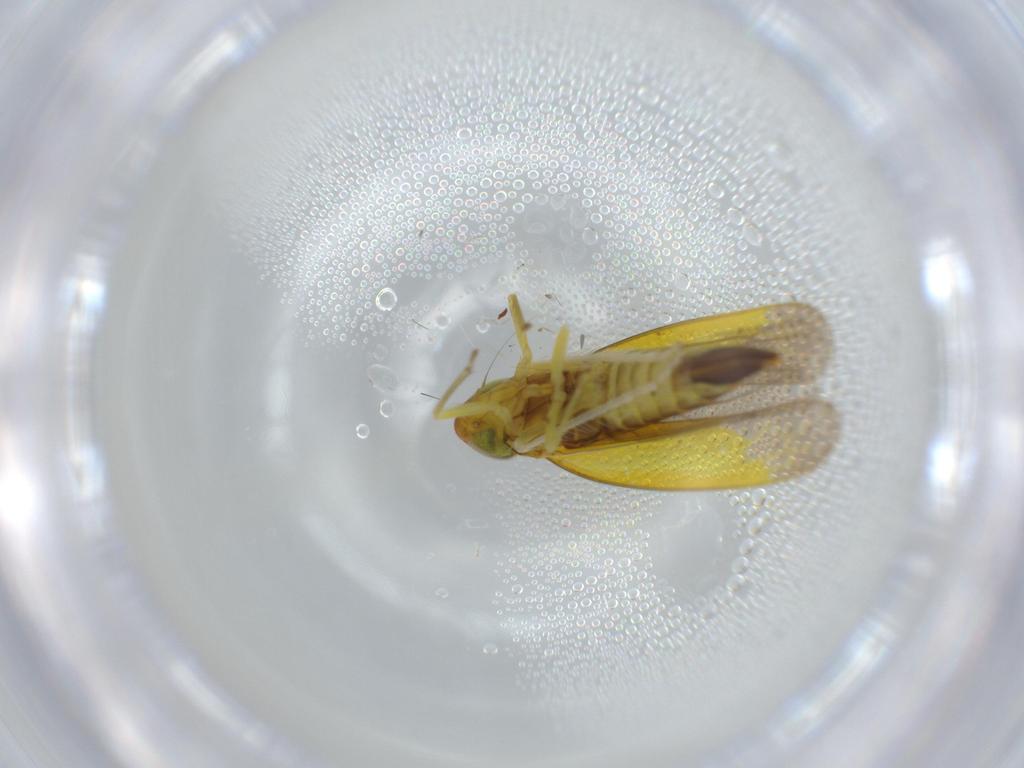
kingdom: Animalia
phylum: Arthropoda
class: Insecta
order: Hemiptera
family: Cicadellidae
